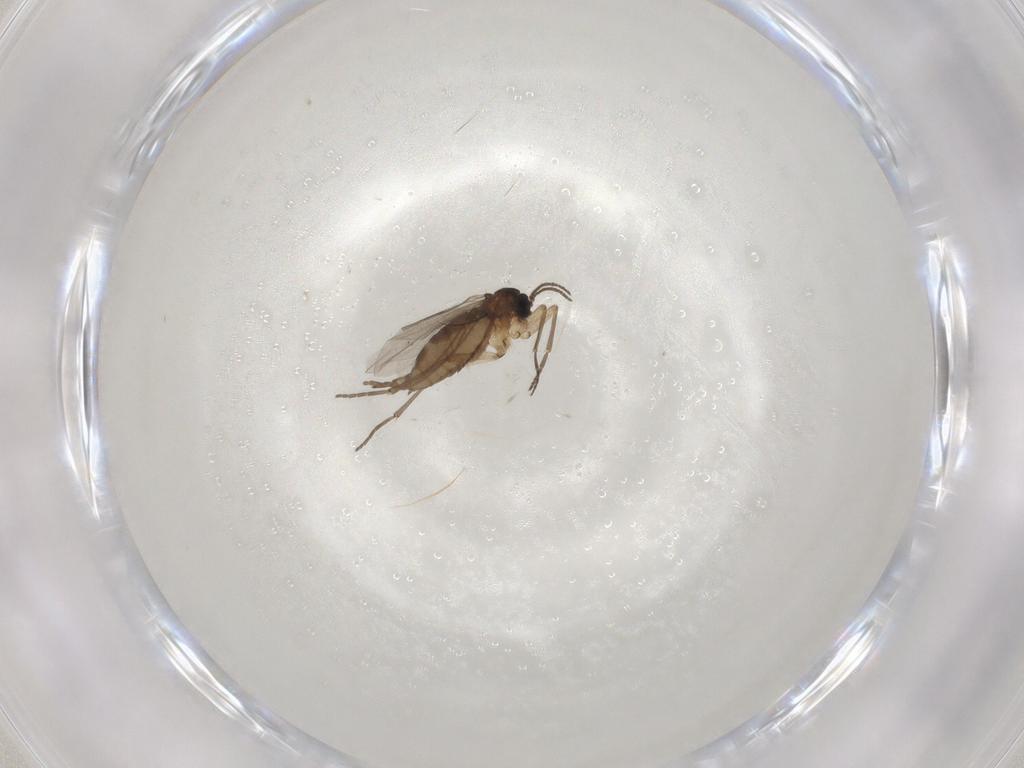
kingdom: Animalia
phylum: Arthropoda
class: Insecta
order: Diptera
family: Sciaridae
